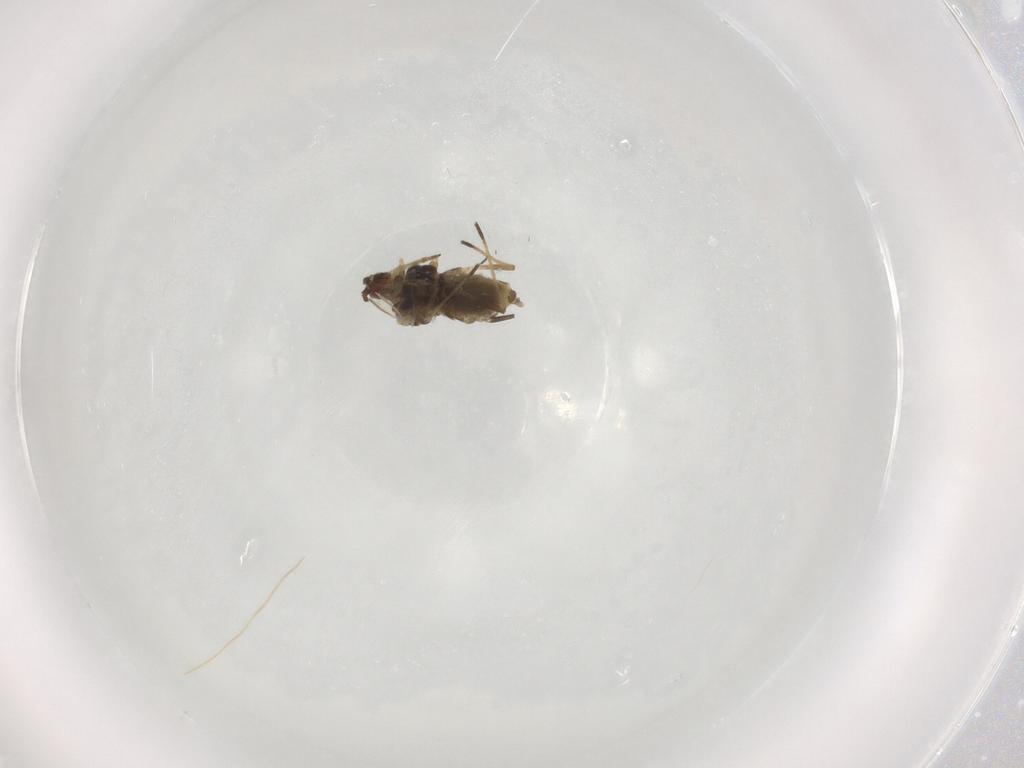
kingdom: Animalia
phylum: Arthropoda
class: Insecta
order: Hemiptera
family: Aphididae
